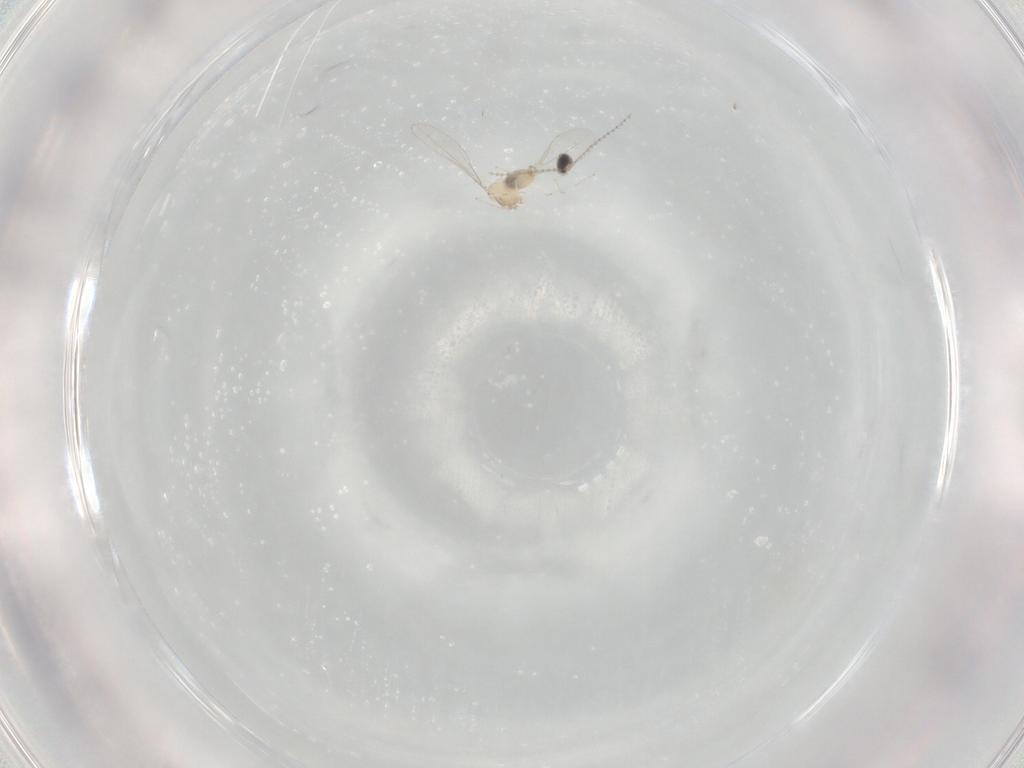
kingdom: Animalia
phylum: Arthropoda
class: Insecta
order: Diptera
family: Cecidomyiidae
